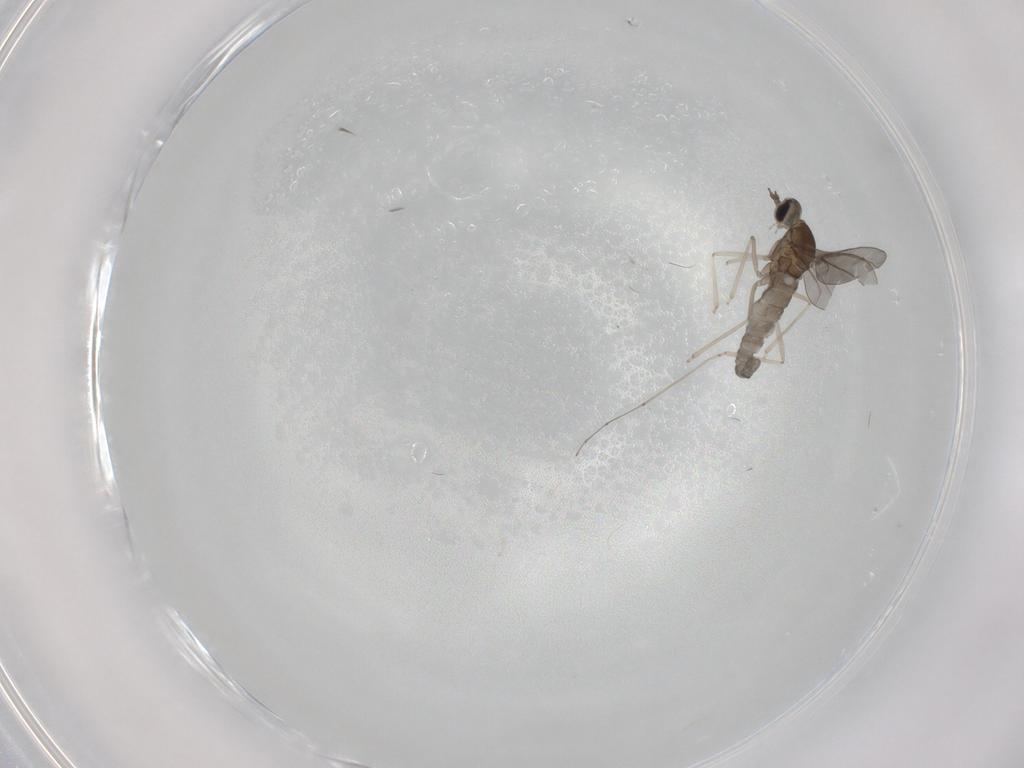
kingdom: Animalia
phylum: Arthropoda
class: Insecta
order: Diptera
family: Cecidomyiidae
